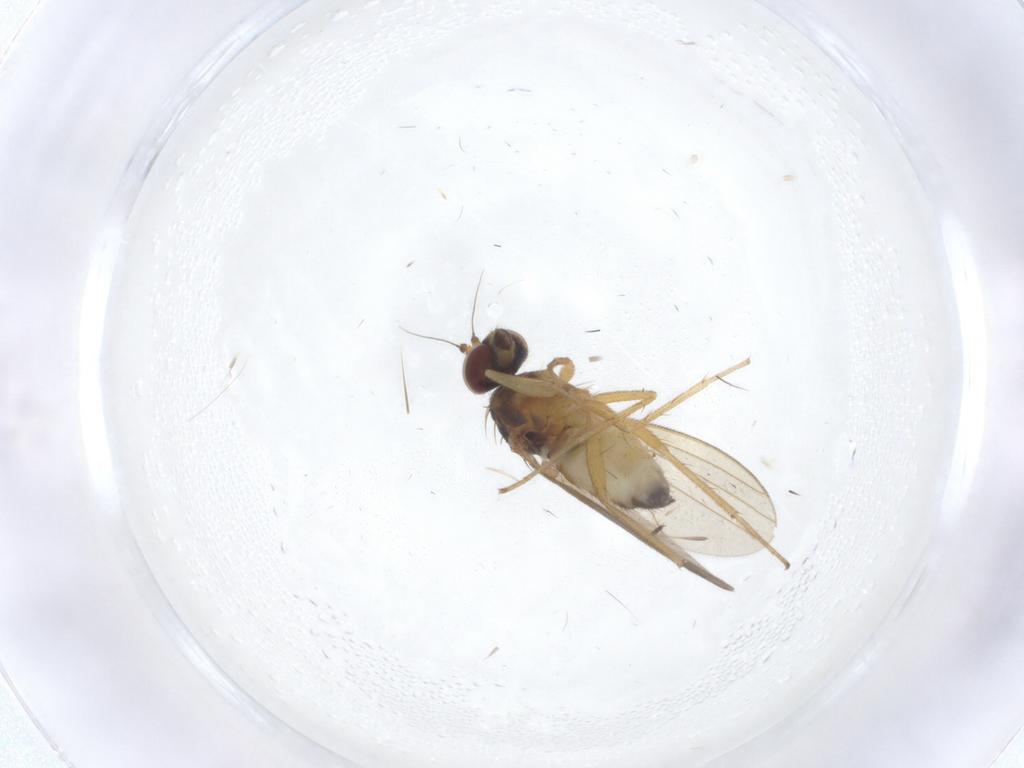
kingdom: Animalia
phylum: Arthropoda
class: Insecta
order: Diptera
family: Dolichopodidae
